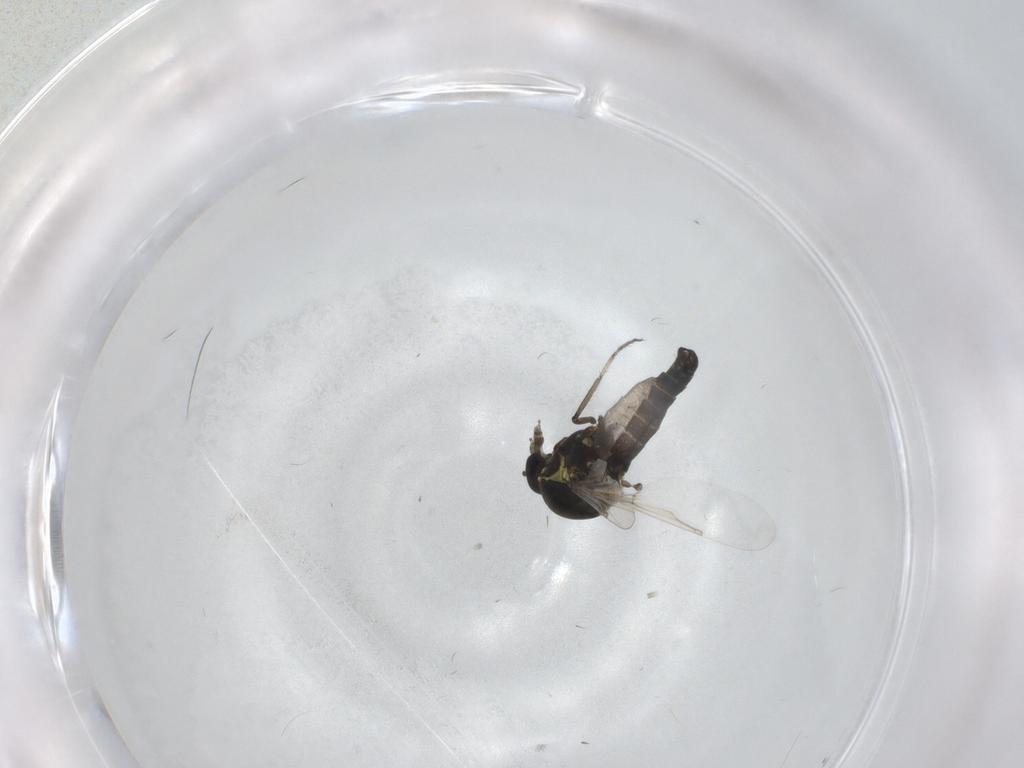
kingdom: Animalia
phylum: Arthropoda
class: Insecta
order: Diptera
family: Ceratopogonidae
